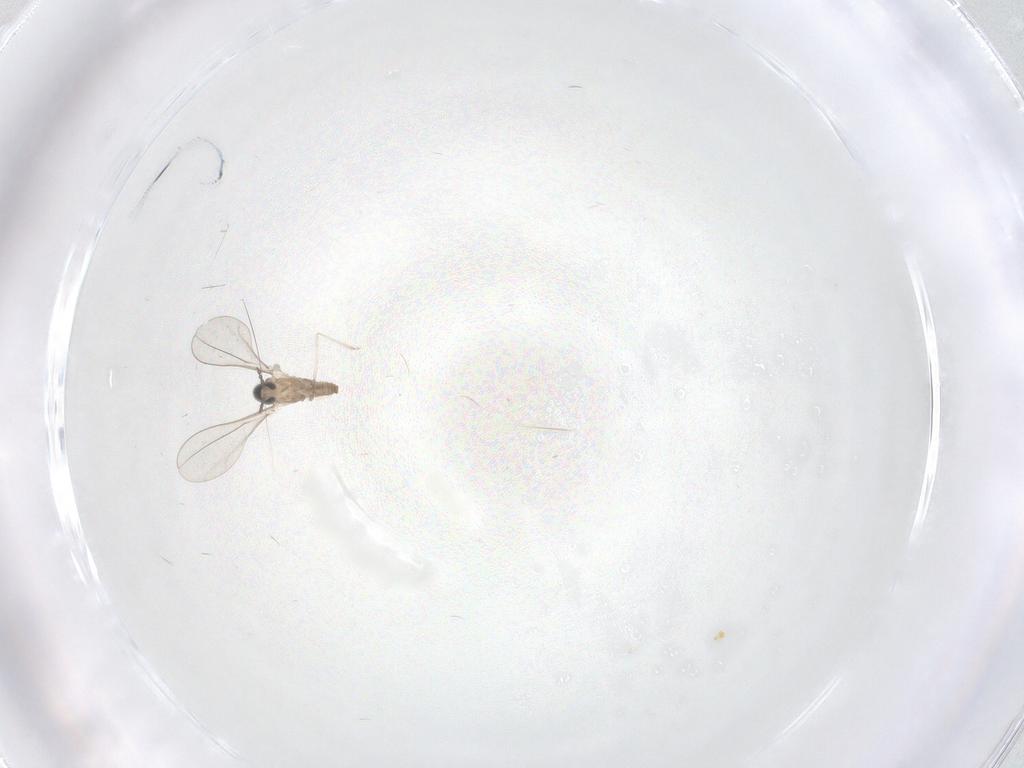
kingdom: Animalia
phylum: Arthropoda
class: Insecta
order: Diptera
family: Cecidomyiidae
